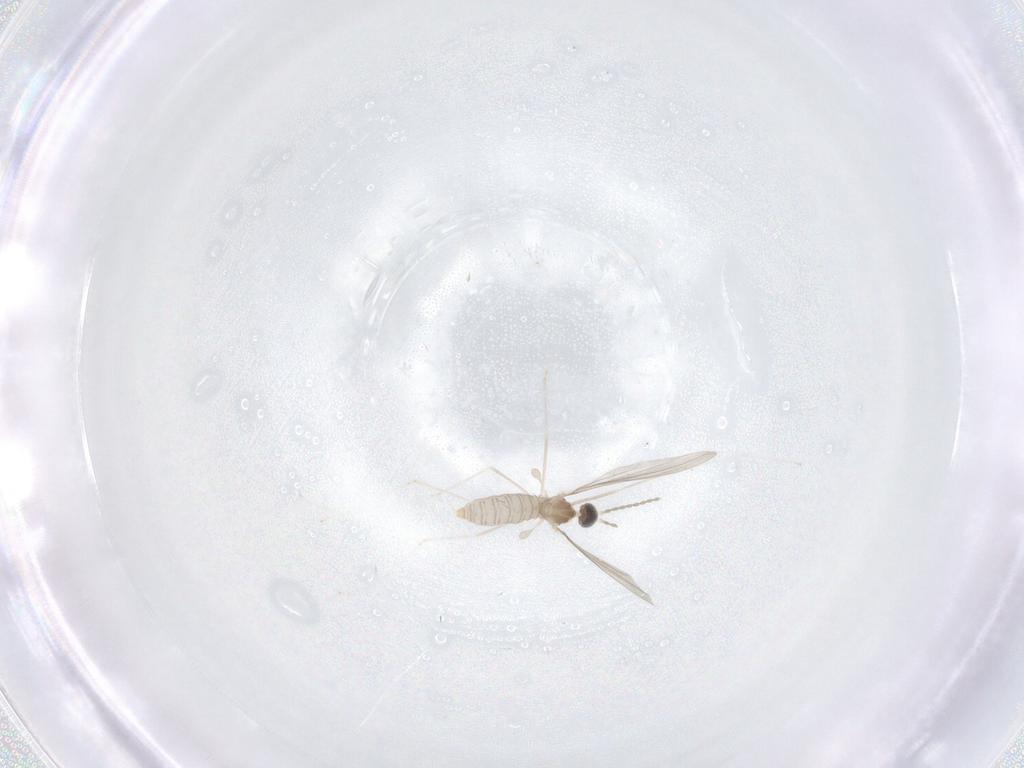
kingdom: Animalia
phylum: Arthropoda
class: Insecta
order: Diptera
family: Cecidomyiidae
